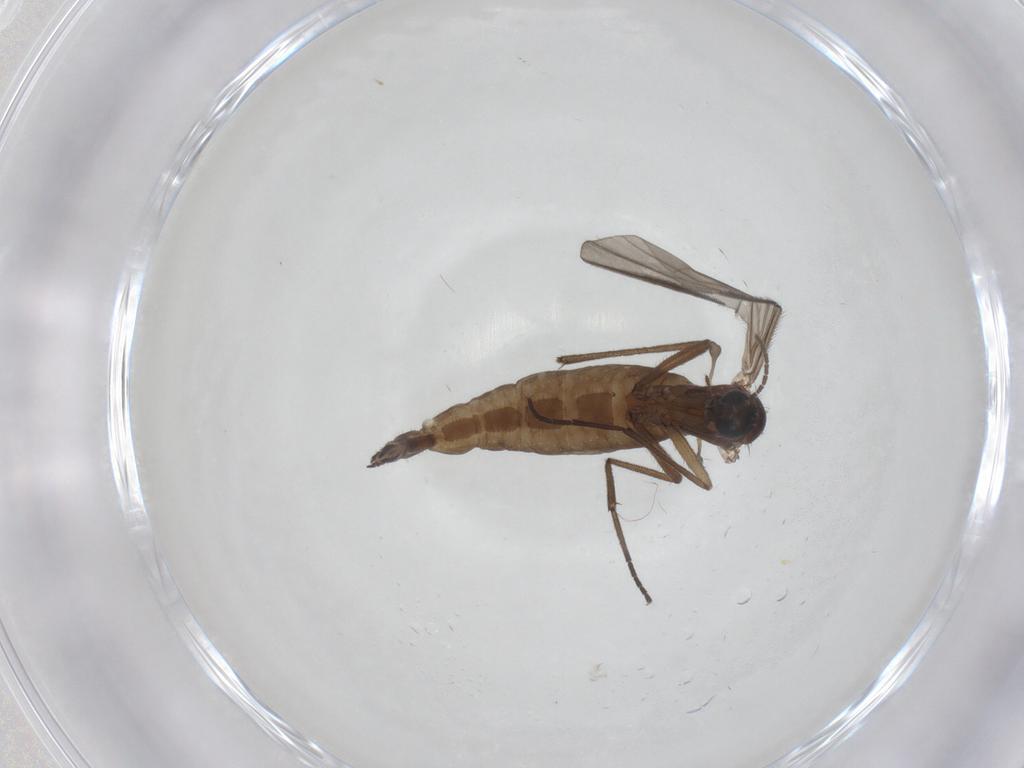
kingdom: Animalia
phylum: Arthropoda
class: Insecta
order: Diptera
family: Sciaridae
